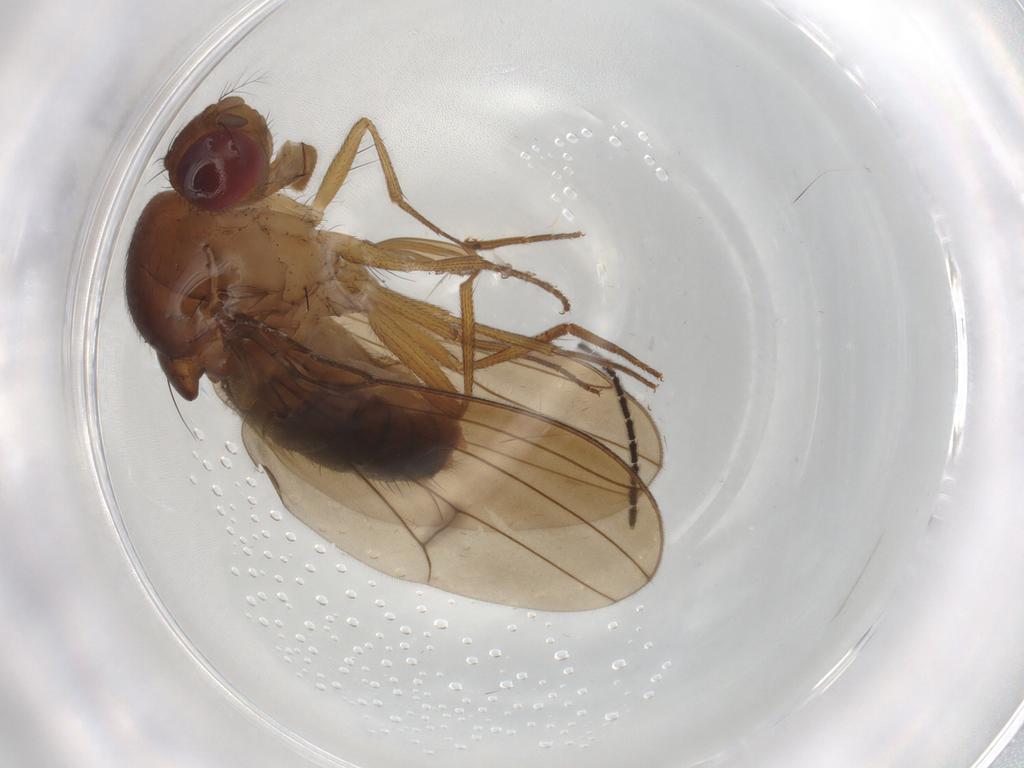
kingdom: Animalia
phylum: Arthropoda
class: Insecta
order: Diptera
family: Drosophilidae
